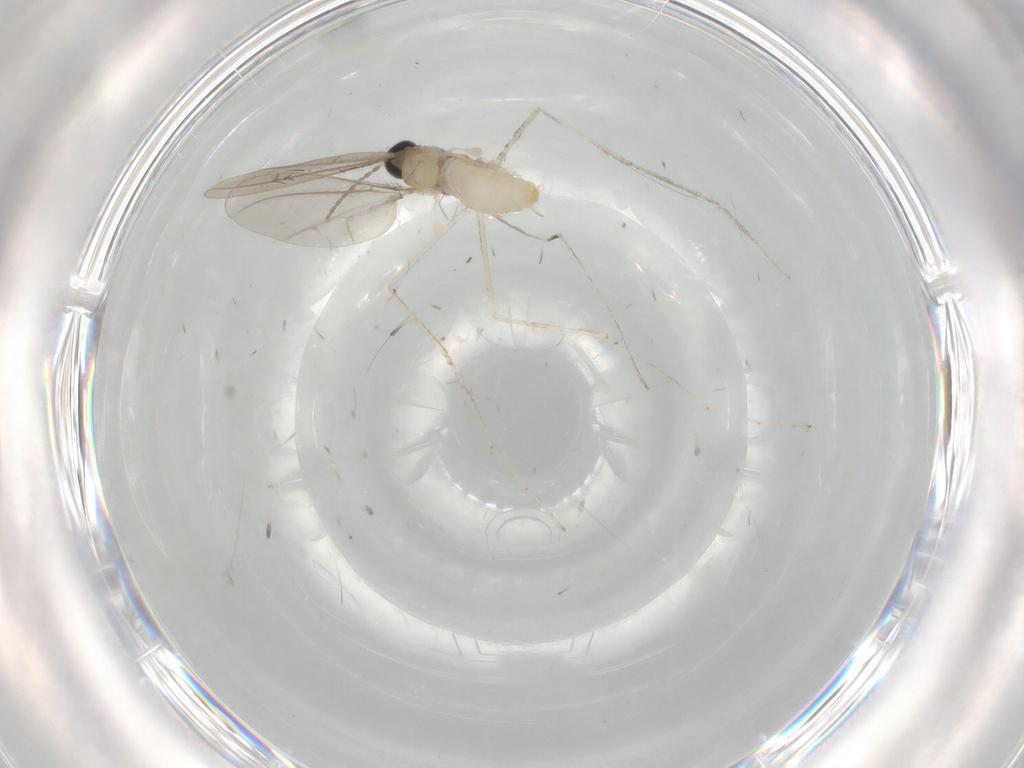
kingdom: Animalia
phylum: Arthropoda
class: Insecta
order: Diptera
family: Cecidomyiidae
